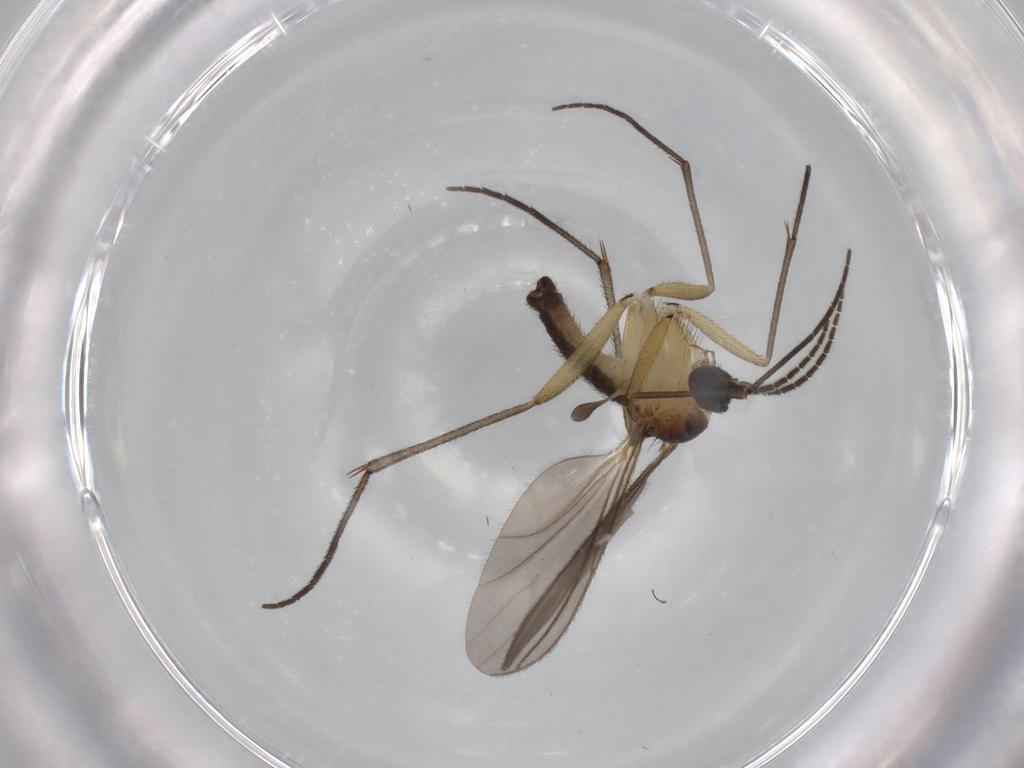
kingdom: Animalia
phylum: Arthropoda
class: Insecta
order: Diptera
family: Sciaridae
